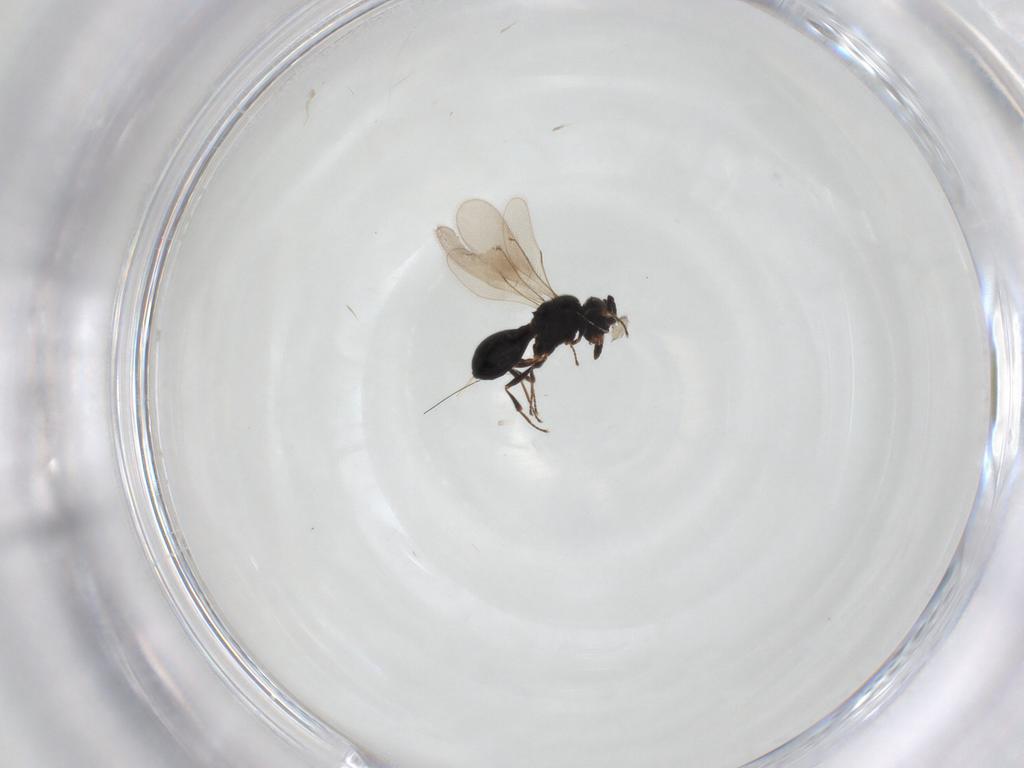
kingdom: Animalia
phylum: Arthropoda
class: Insecta
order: Hymenoptera
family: Scelionidae
